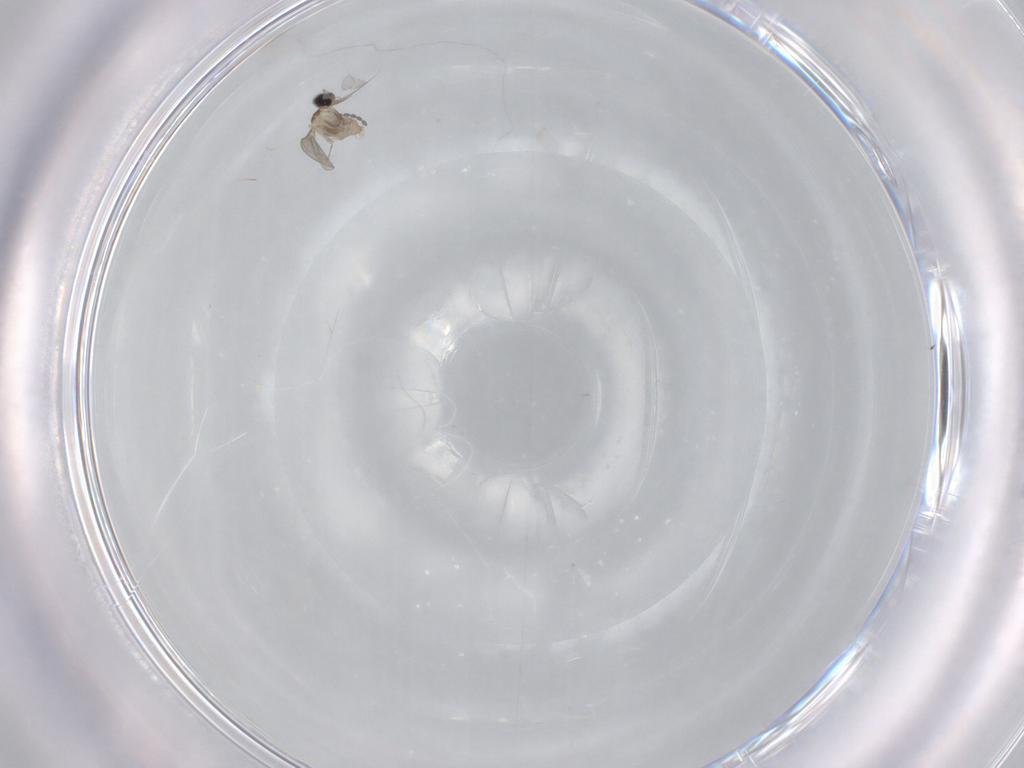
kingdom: Animalia
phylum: Arthropoda
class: Insecta
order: Diptera
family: Cecidomyiidae
